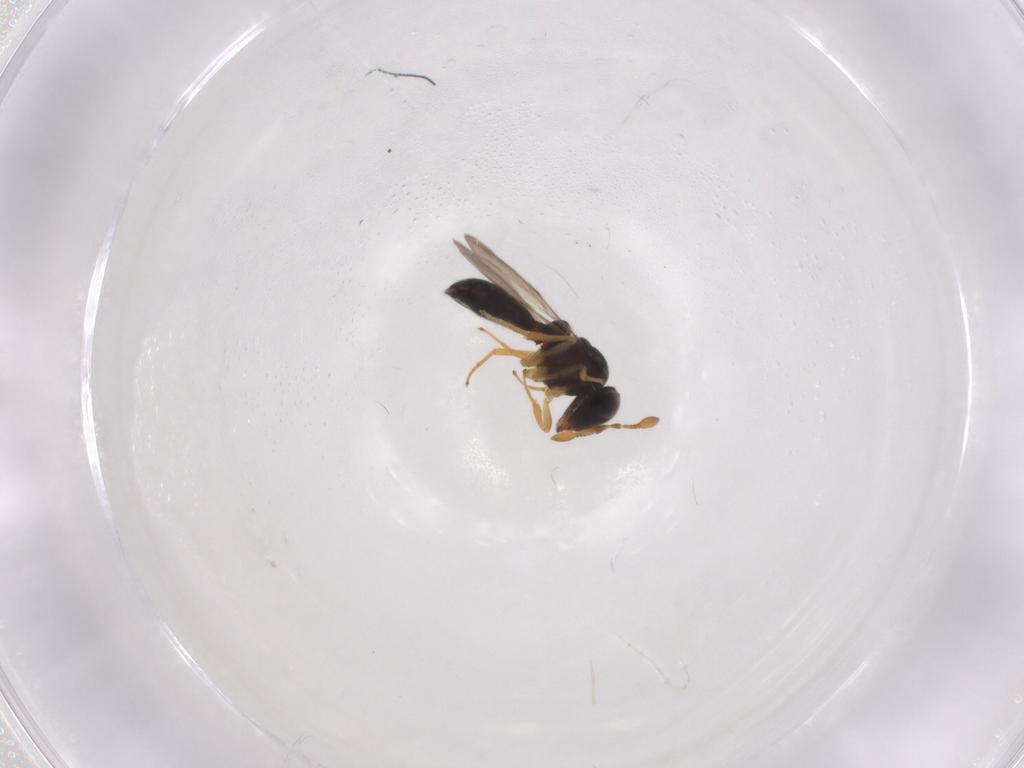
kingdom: Animalia
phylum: Arthropoda
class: Insecta
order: Hymenoptera
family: Scelionidae
